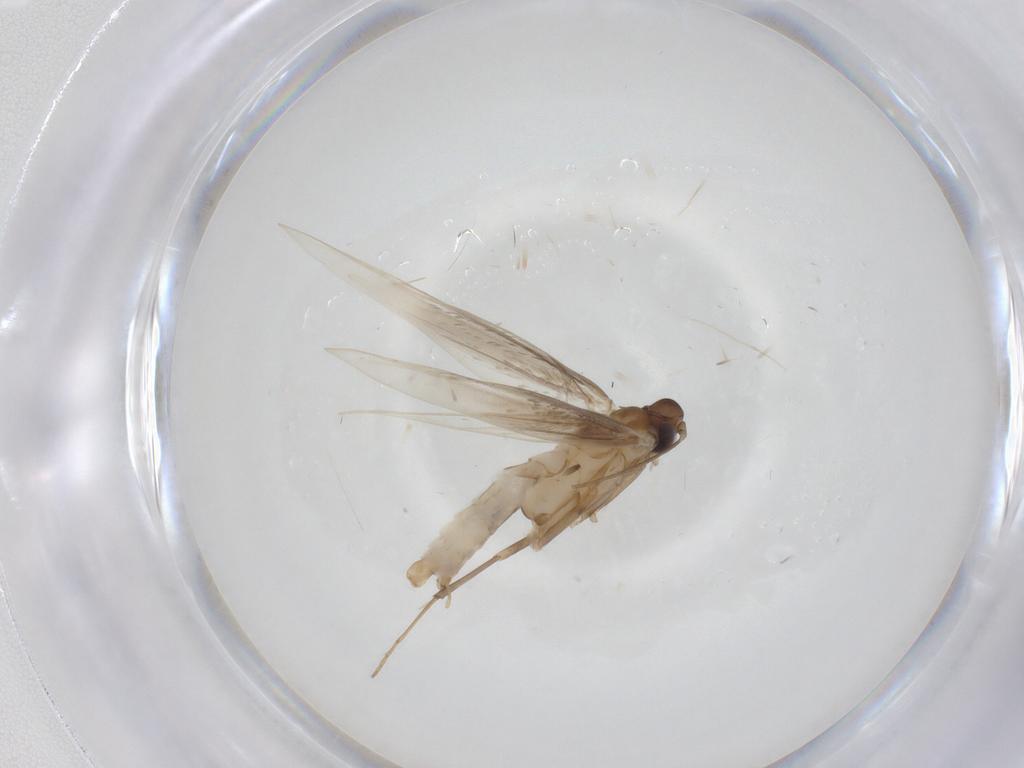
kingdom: Animalia
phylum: Arthropoda
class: Insecta
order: Lepidoptera
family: Tischeriidae
